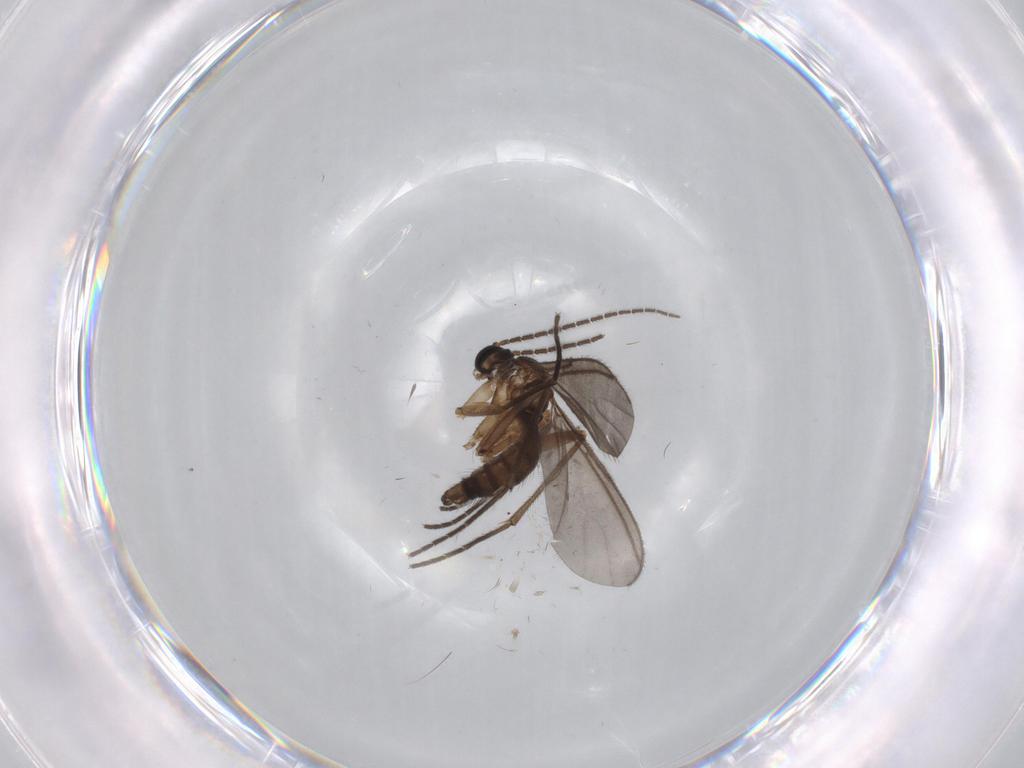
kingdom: Animalia
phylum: Arthropoda
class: Insecta
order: Diptera
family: Sciaridae
